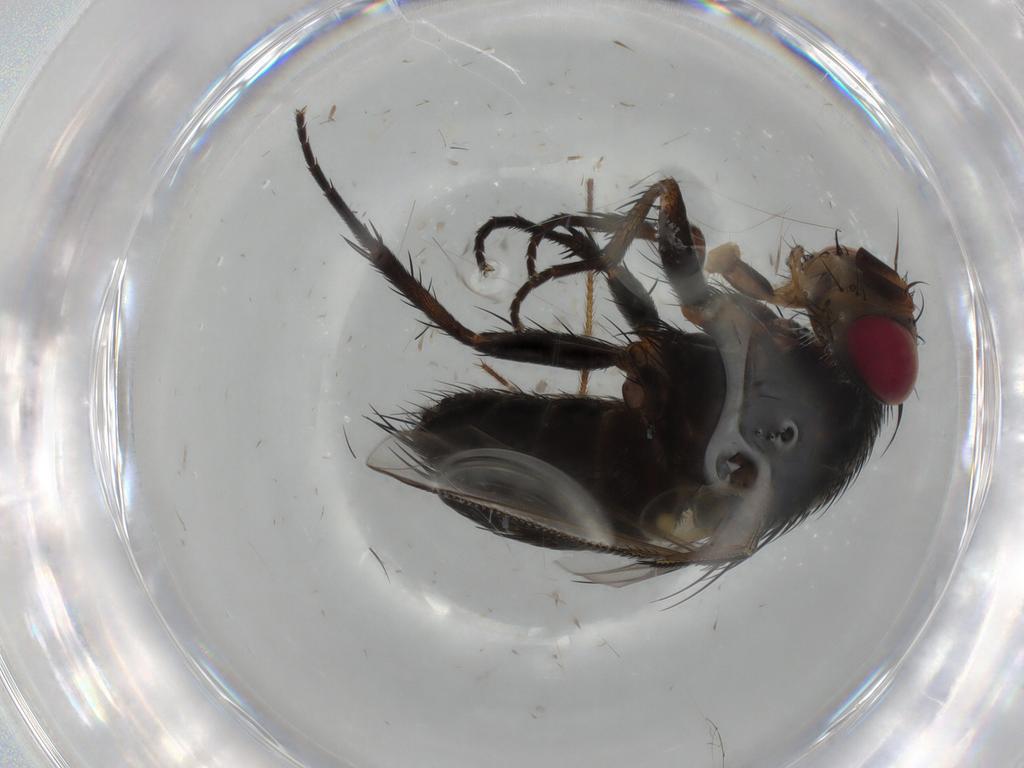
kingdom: Animalia
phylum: Arthropoda
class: Insecta
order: Diptera
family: Limoniidae
